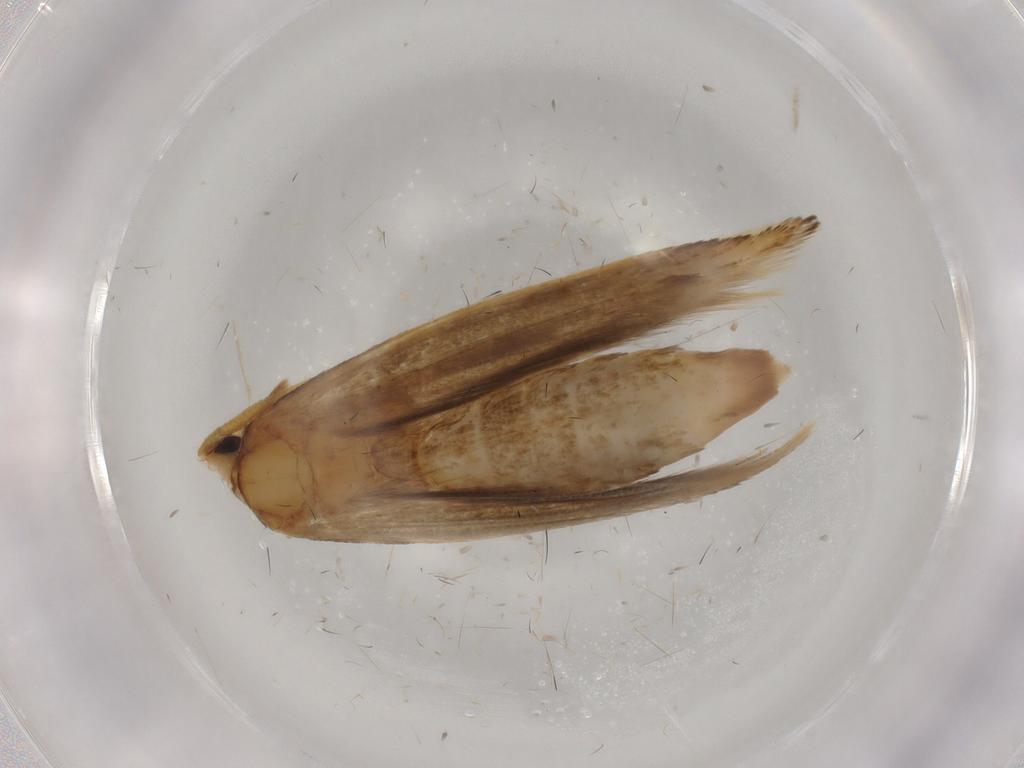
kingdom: Animalia
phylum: Arthropoda
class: Insecta
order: Lepidoptera
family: Tineidae
